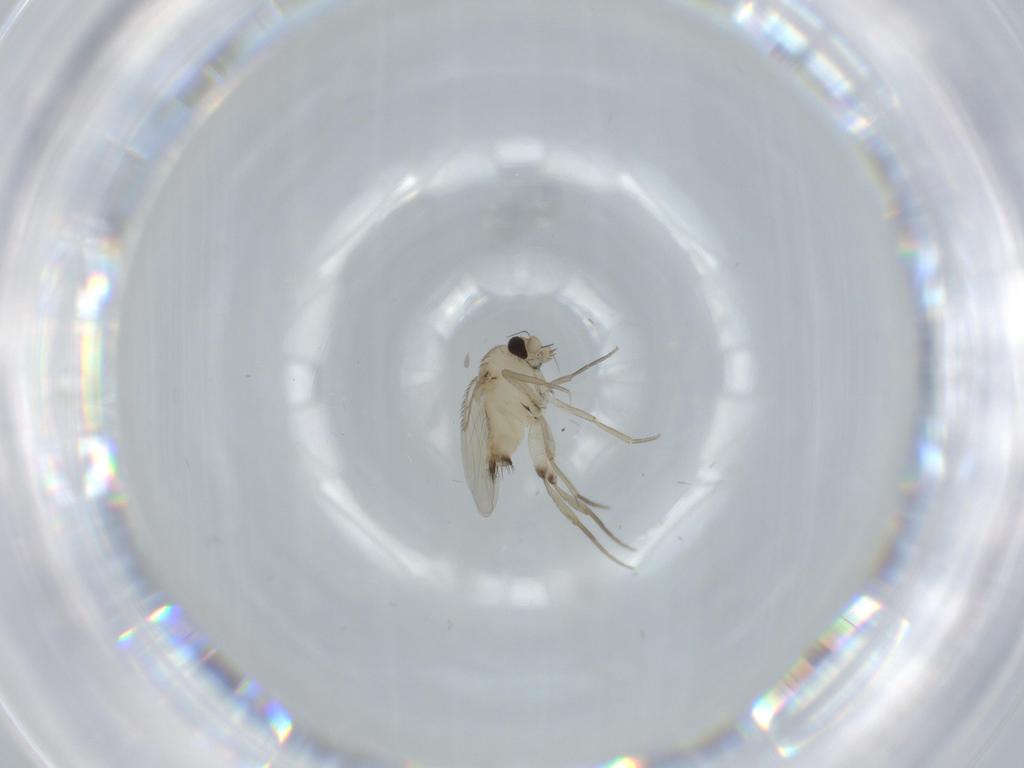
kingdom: Animalia
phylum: Arthropoda
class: Insecta
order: Diptera
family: Phoridae
